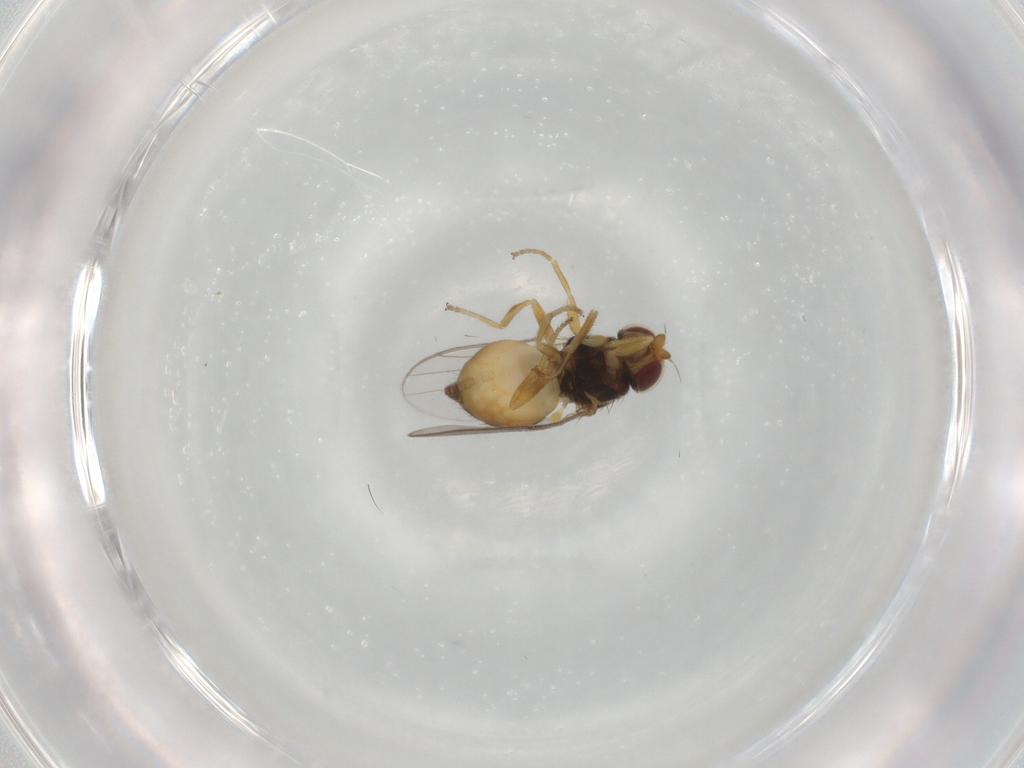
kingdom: Animalia
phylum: Arthropoda
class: Insecta
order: Diptera
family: Chloropidae
